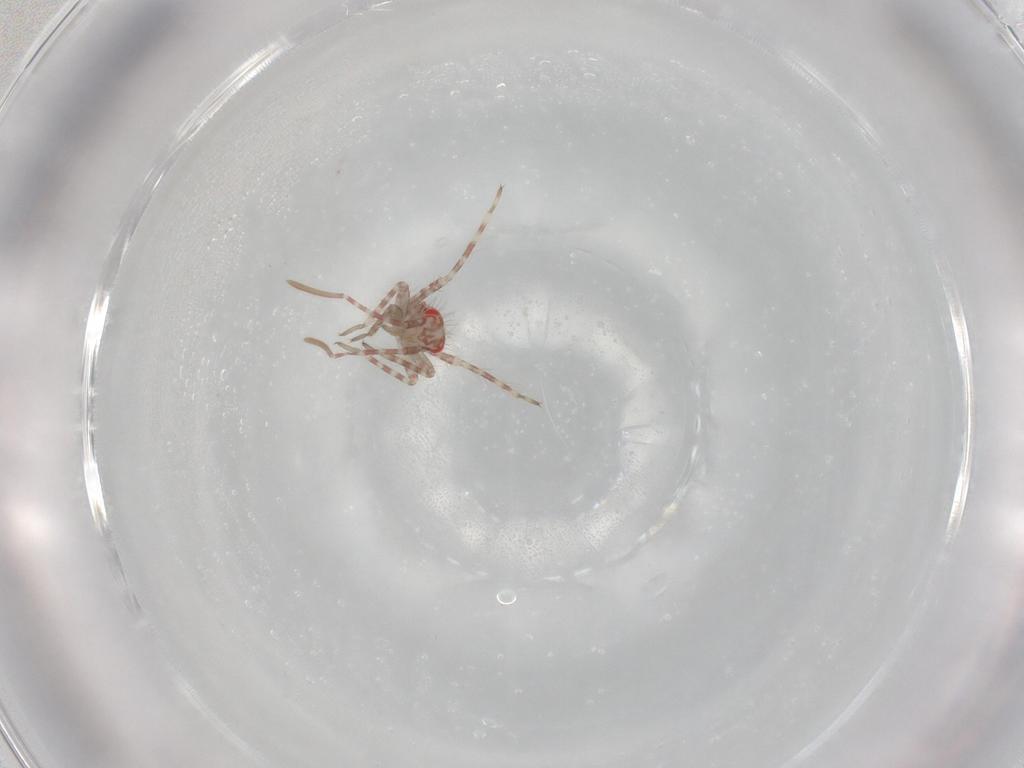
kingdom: Animalia
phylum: Arthropoda
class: Insecta
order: Hemiptera
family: Miridae
